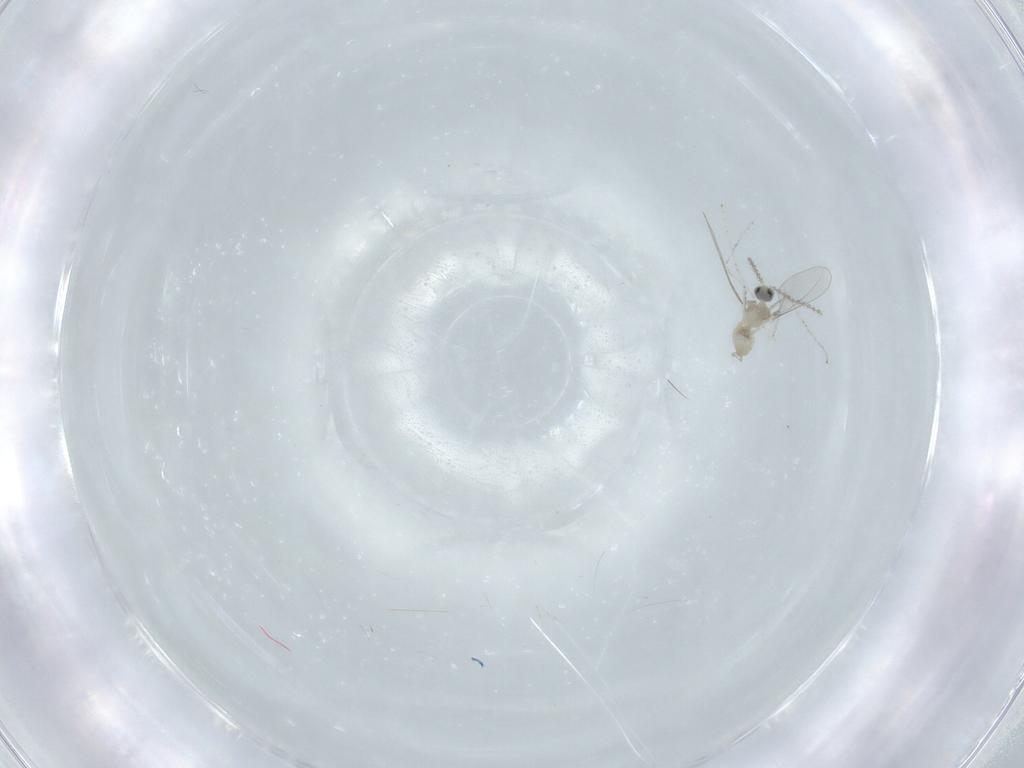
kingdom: Animalia
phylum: Arthropoda
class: Insecta
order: Diptera
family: Cecidomyiidae
